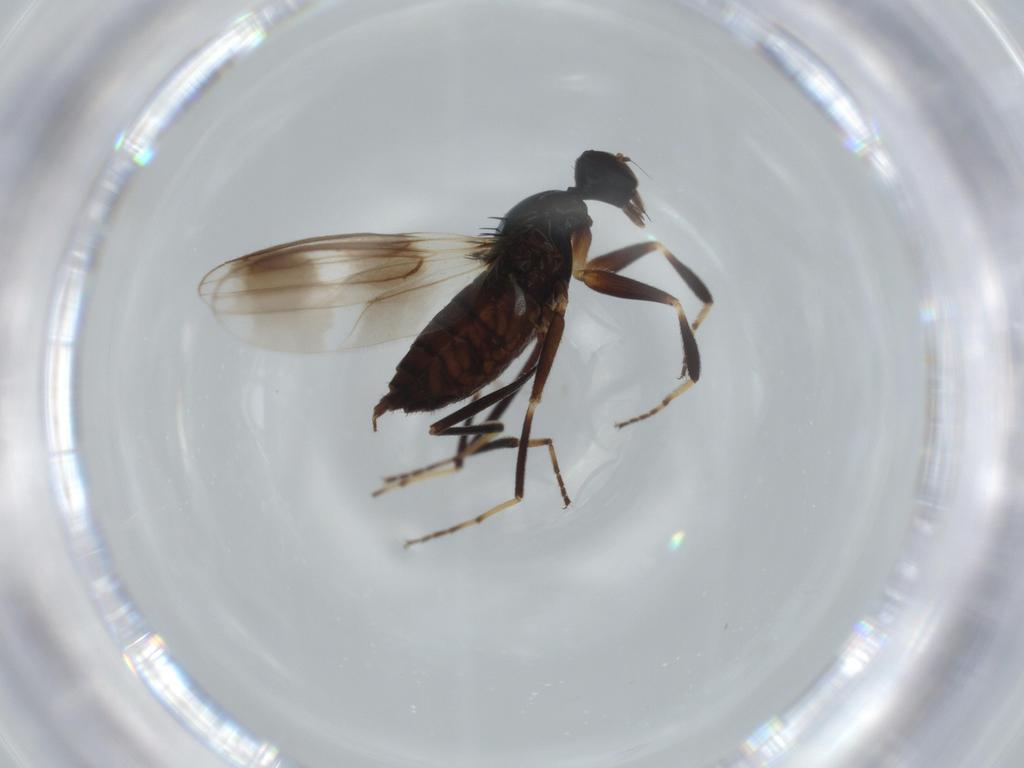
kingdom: Animalia
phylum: Arthropoda
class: Insecta
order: Diptera
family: Hybotidae
